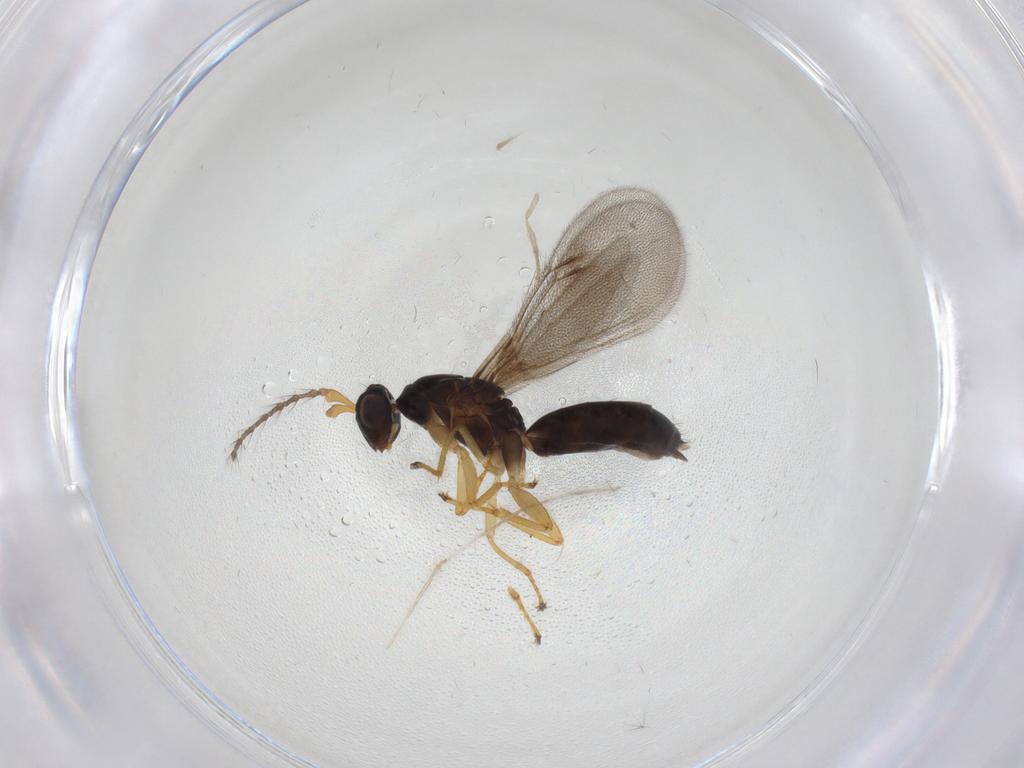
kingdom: Animalia
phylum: Arthropoda
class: Insecta
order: Hymenoptera
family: Eulophidae
